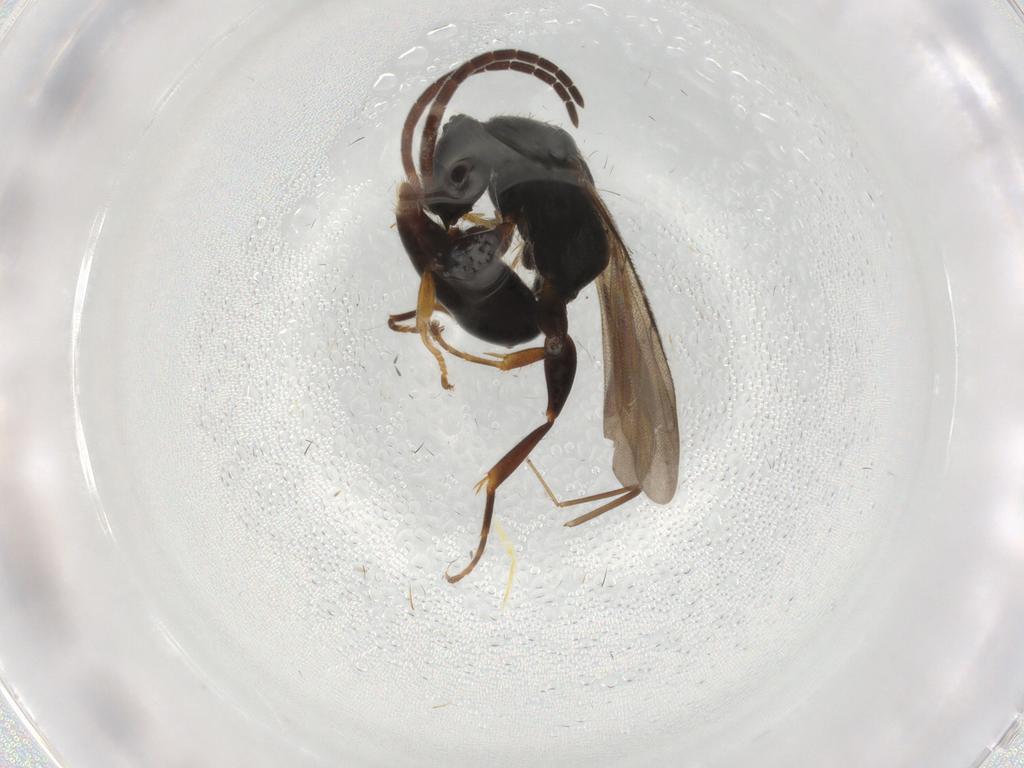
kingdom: Animalia
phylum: Arthropoda
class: Insecta
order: Hymenoptera
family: Bethylidae
